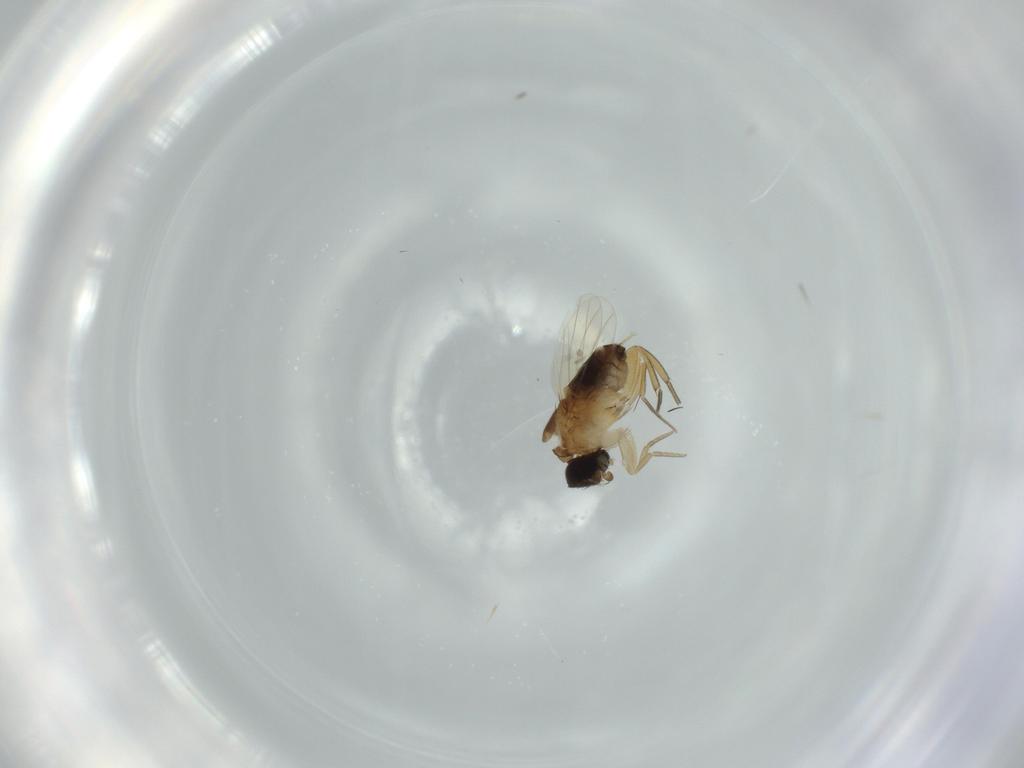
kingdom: Animalia
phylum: Arthropoda
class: Insecta
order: Diptera
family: Phoridae
